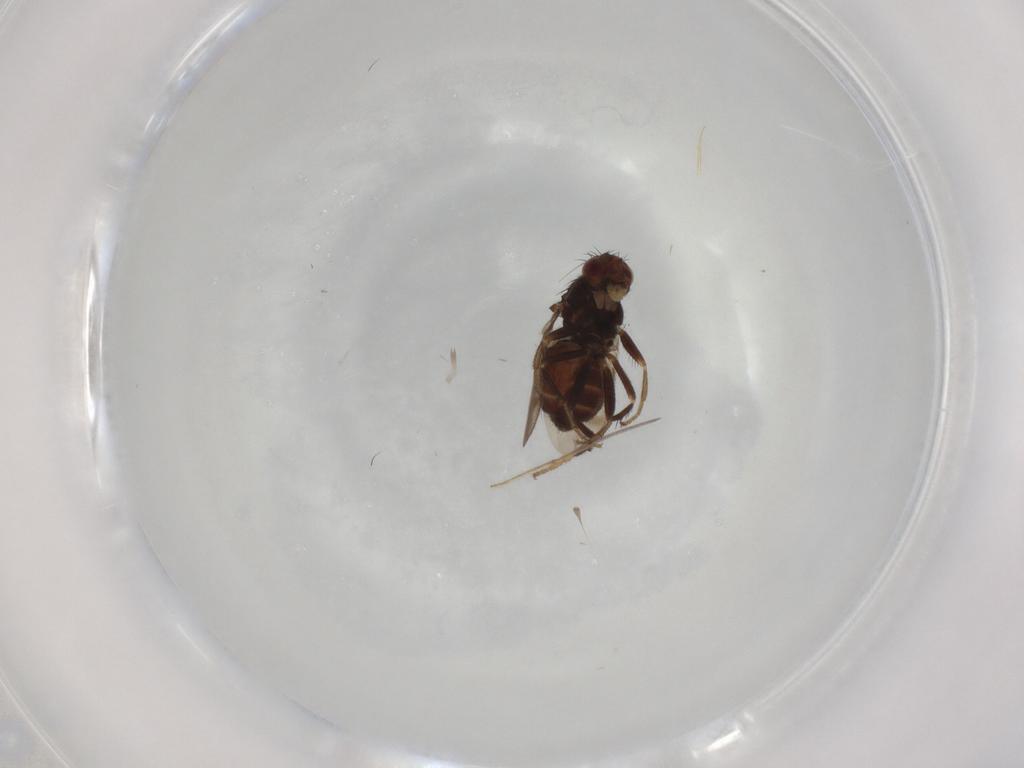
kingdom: Animalia
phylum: Arthropoda
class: Insecta
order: Diptera
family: Sphaeroceridae
